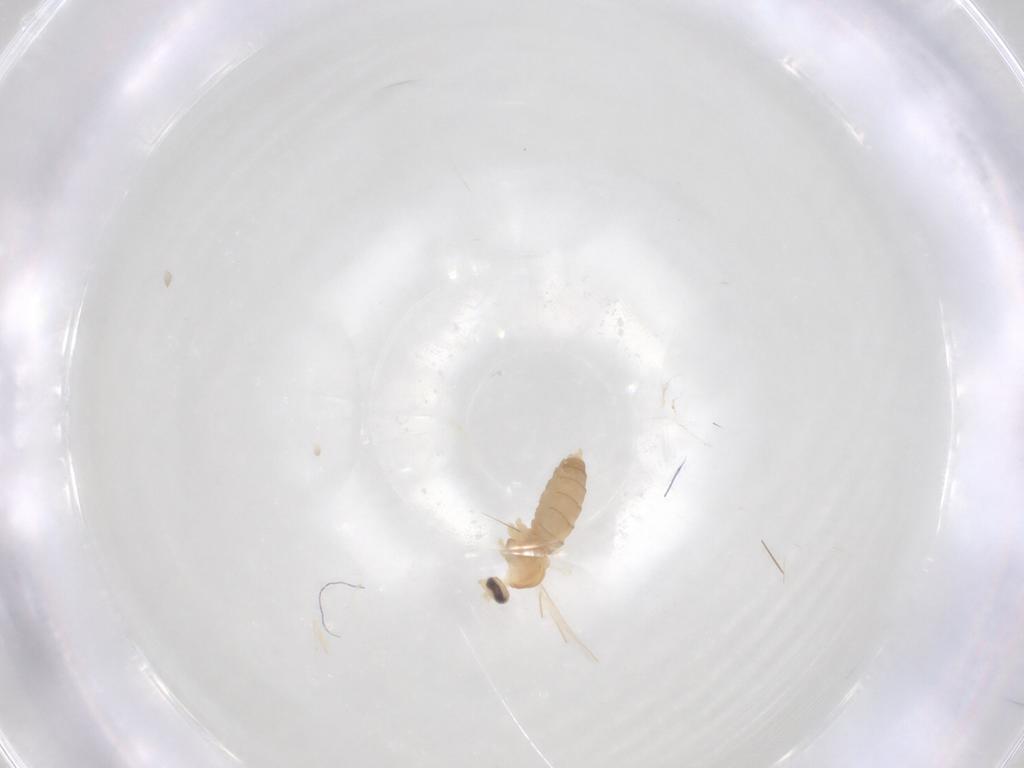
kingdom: Animalia
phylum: Arthropoda
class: Insecta
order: Diptera
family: Cecidomyiidae
